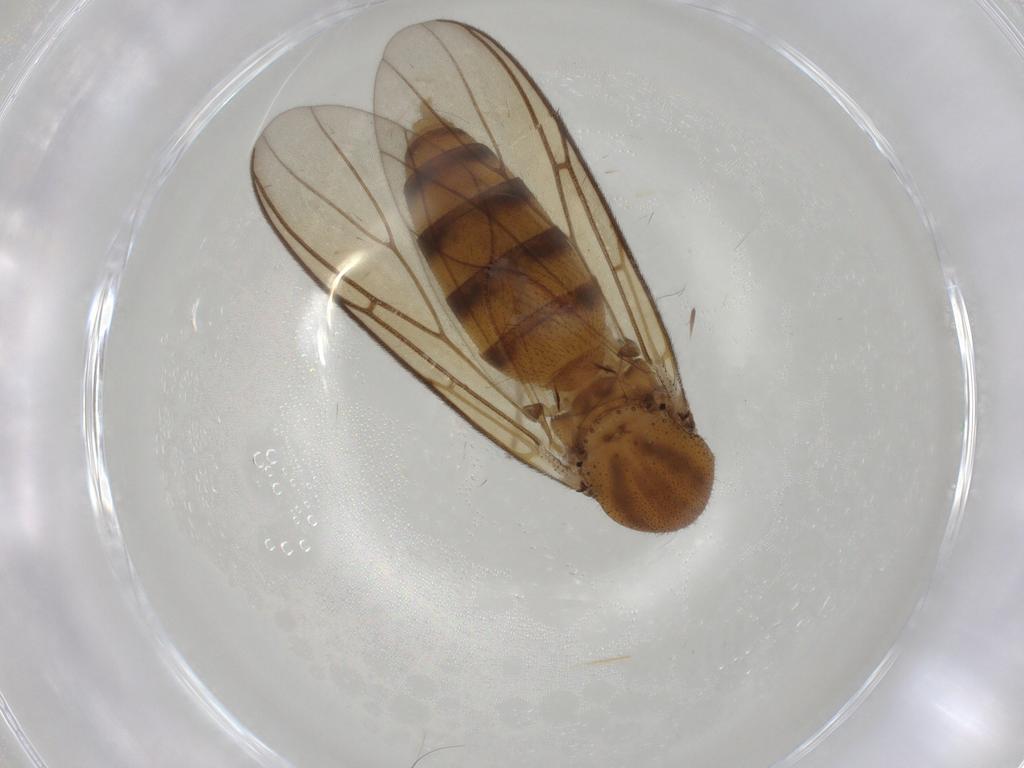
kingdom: Animalia
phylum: Arthropoda
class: Insecta
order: Diptera
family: Mycetophilidae
